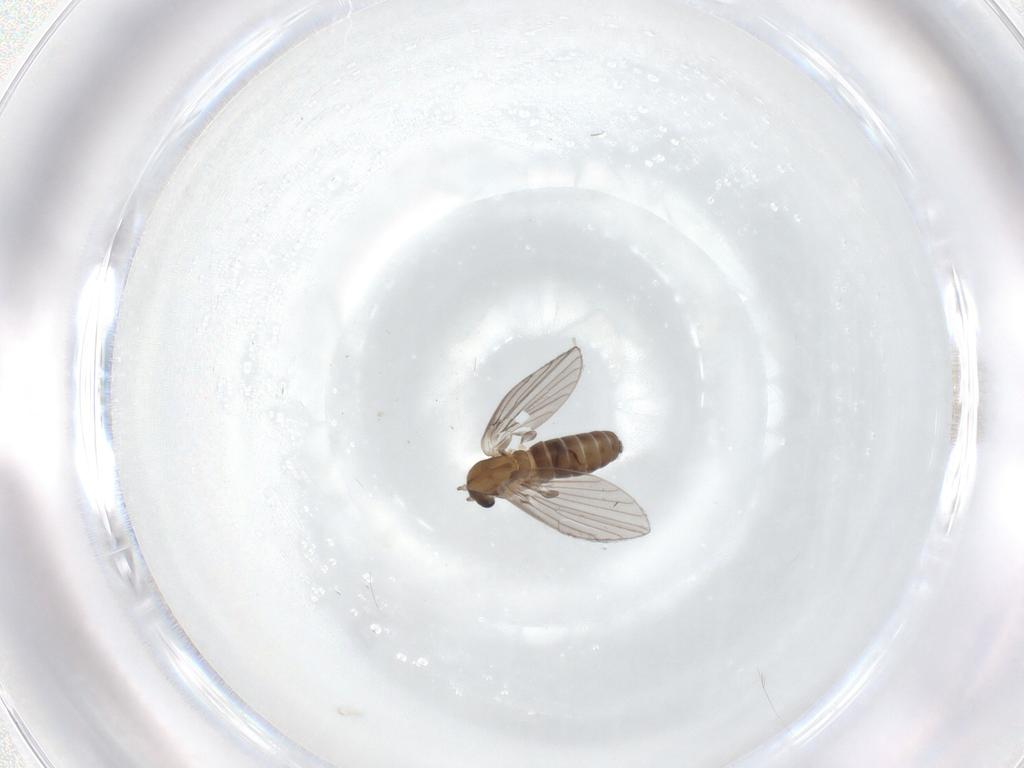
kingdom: Animalia
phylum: Arthropoda
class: Insecta
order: Diptera
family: Psychodidae
